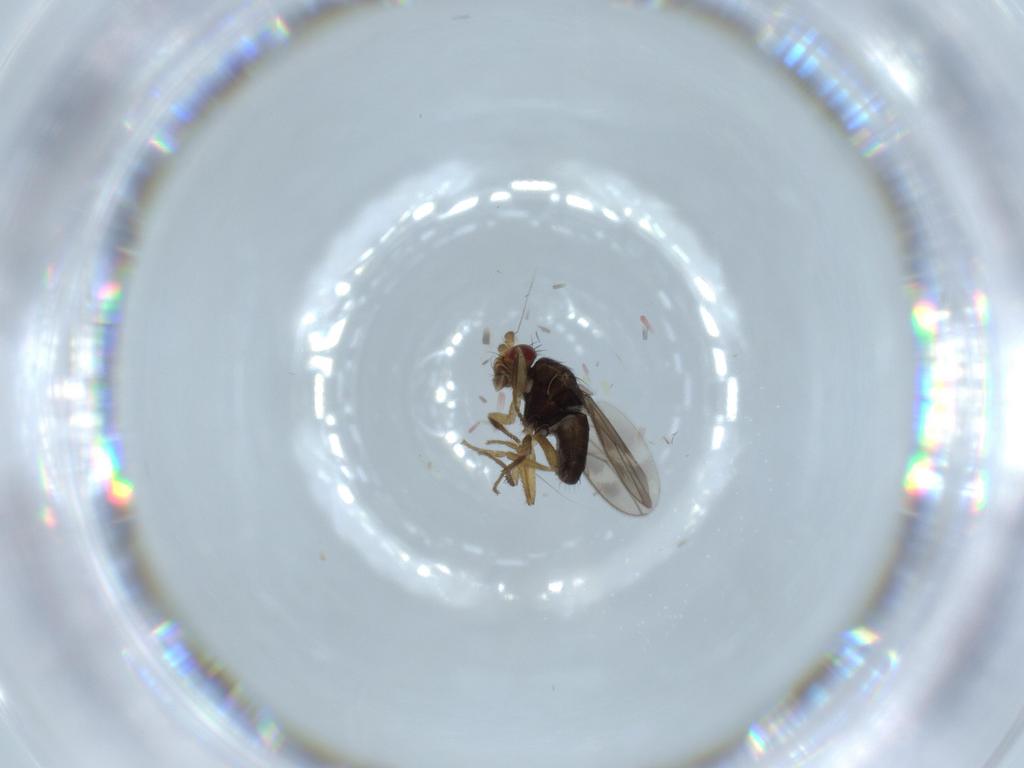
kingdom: Animalia
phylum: Arthropoda
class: Insecta
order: Diptera
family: Sphaeroceridae
